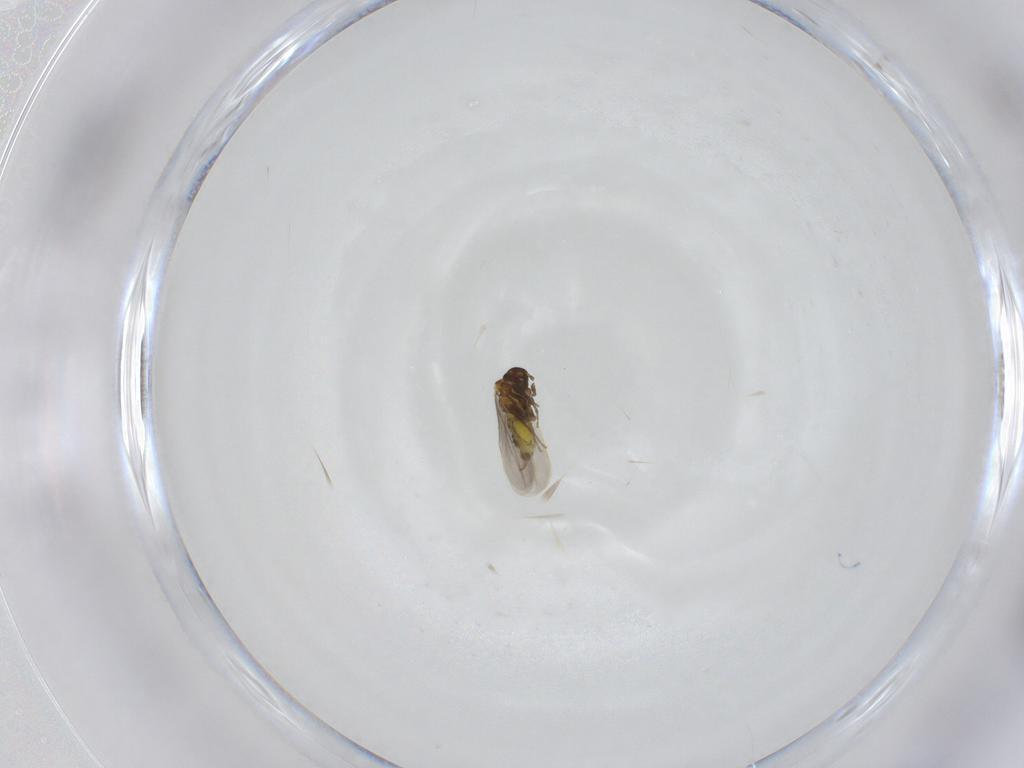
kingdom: Animalia
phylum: Arthropoda
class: Insecta
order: Hemiptera
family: Aleyrodidae
